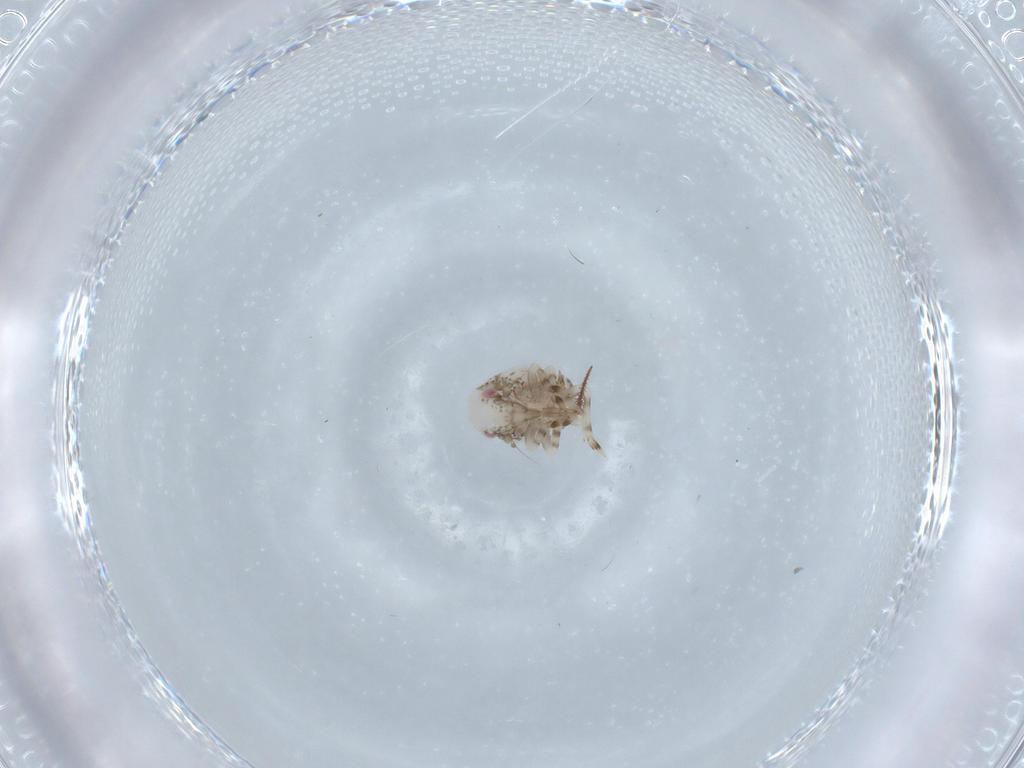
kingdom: Animalia
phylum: Arthropoda
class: Insecta
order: Hemiptera
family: Acanaloniidae
